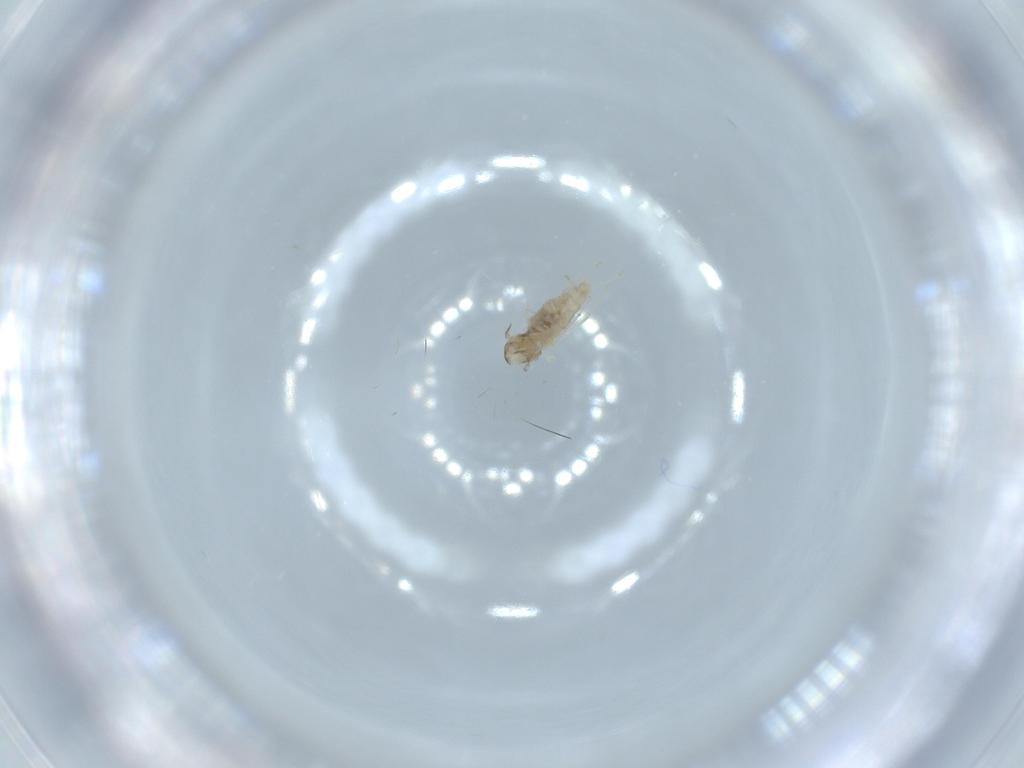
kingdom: Animalia
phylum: Arthropoda
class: Insecta
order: Diptera
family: Cecidomyiidae
